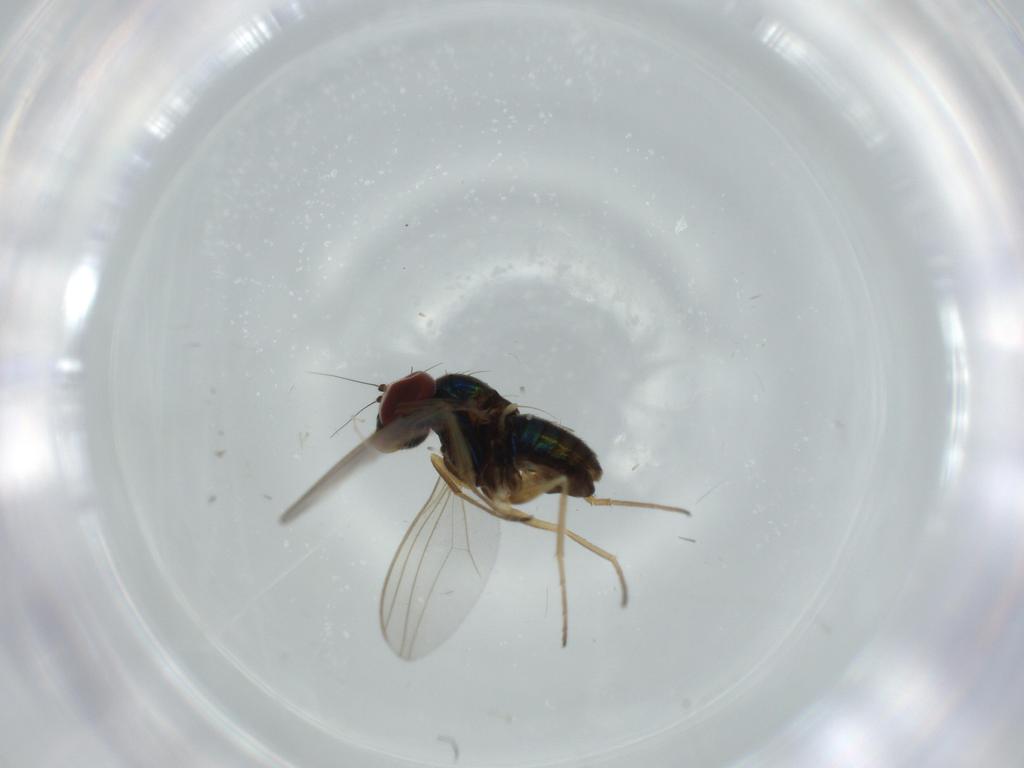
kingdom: Animalia
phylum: Arthropoda
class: Insecta
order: Diptera
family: Dolichopodidae
